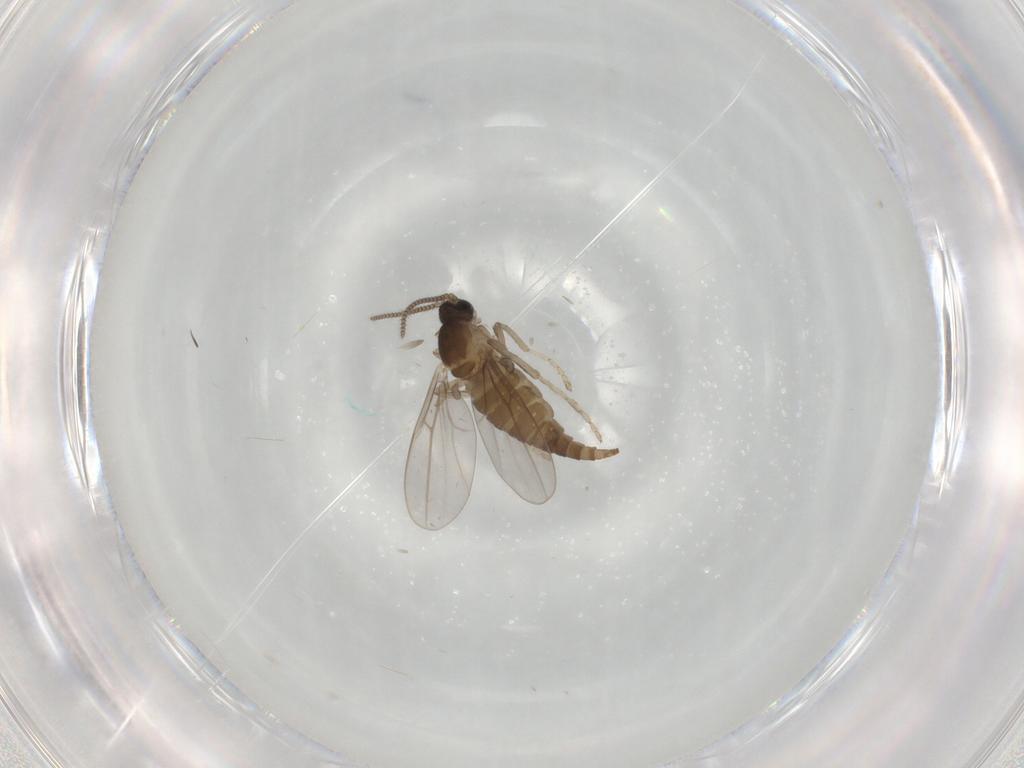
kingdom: Animalia
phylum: Arthropoda
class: Insecta
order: Diptera
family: Cecidomyiidae
